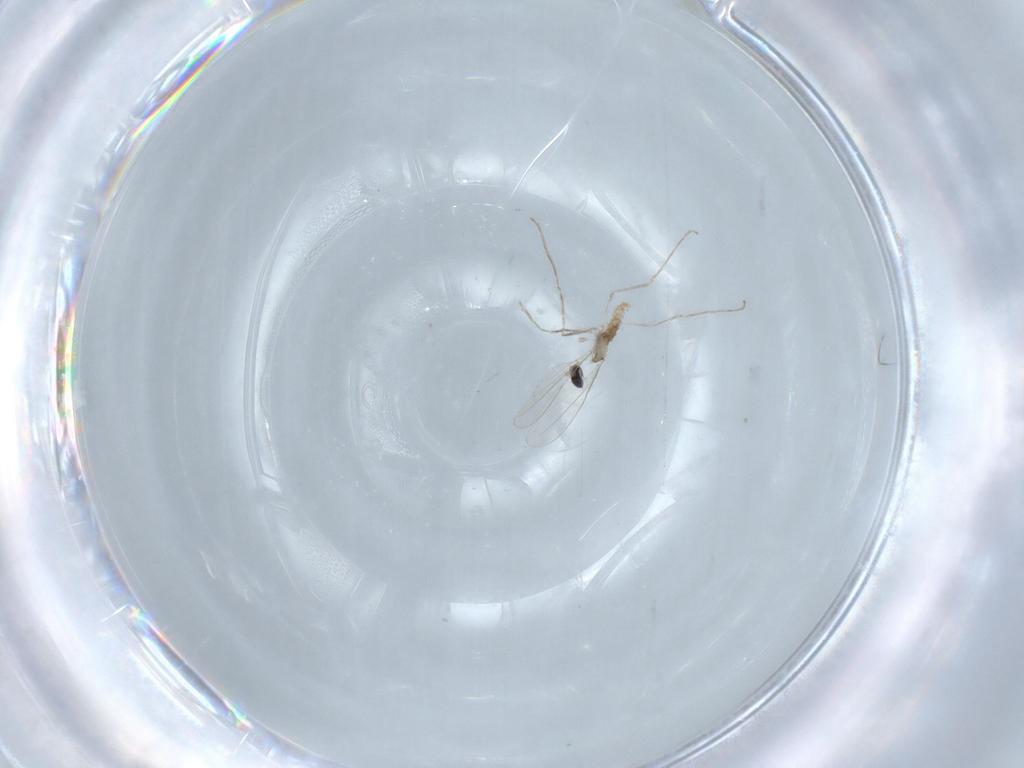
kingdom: Animalia
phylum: Arthropoda
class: Insecta
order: Diptera
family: Cecidomyiidae
